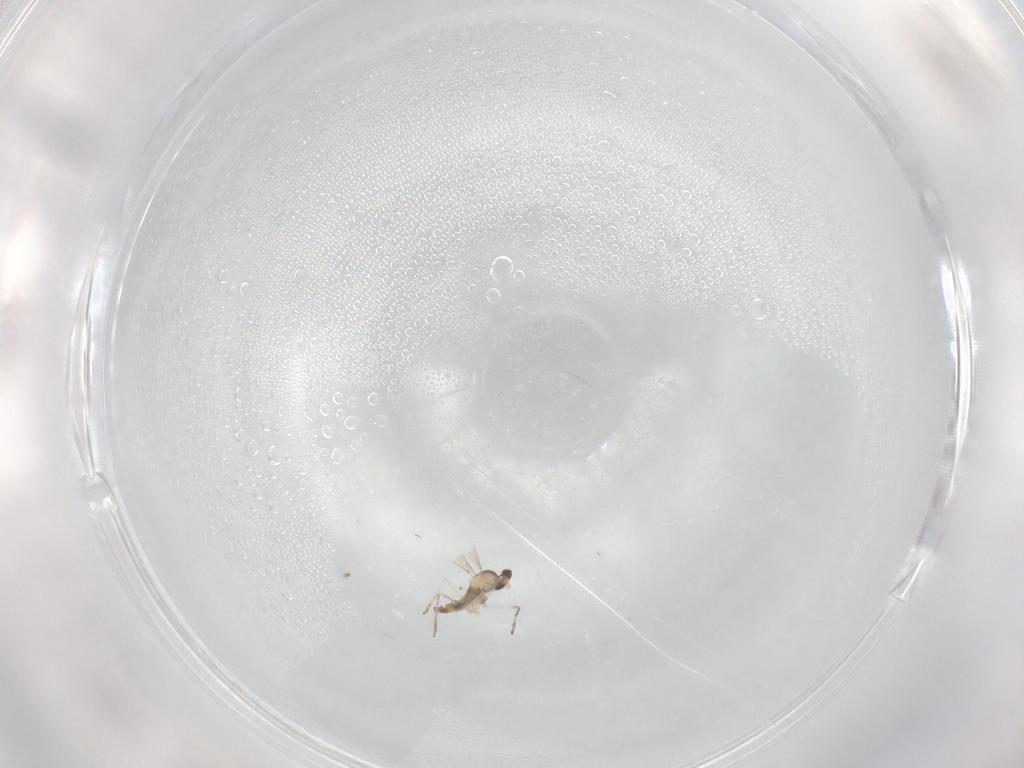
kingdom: Animalia
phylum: Arthropoda
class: Insecta
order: Diptera
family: Cecidomyiidae
